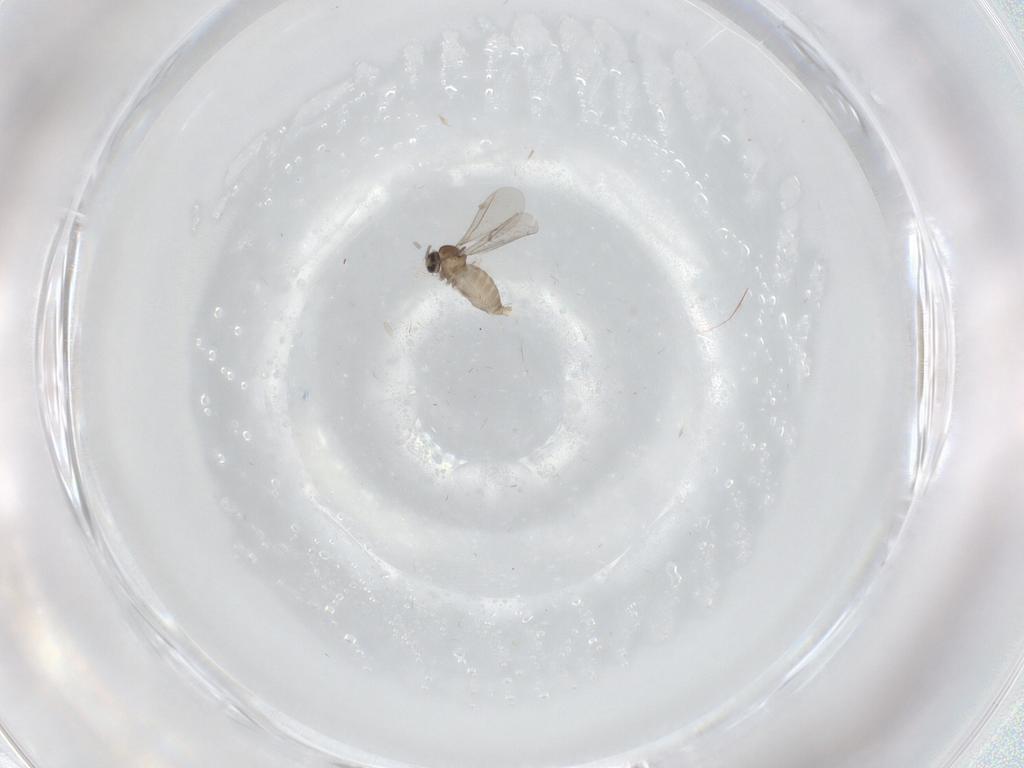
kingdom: Animalia
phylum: Arthropoda
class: Insecta
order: Diptera
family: Cecidomyiidae
